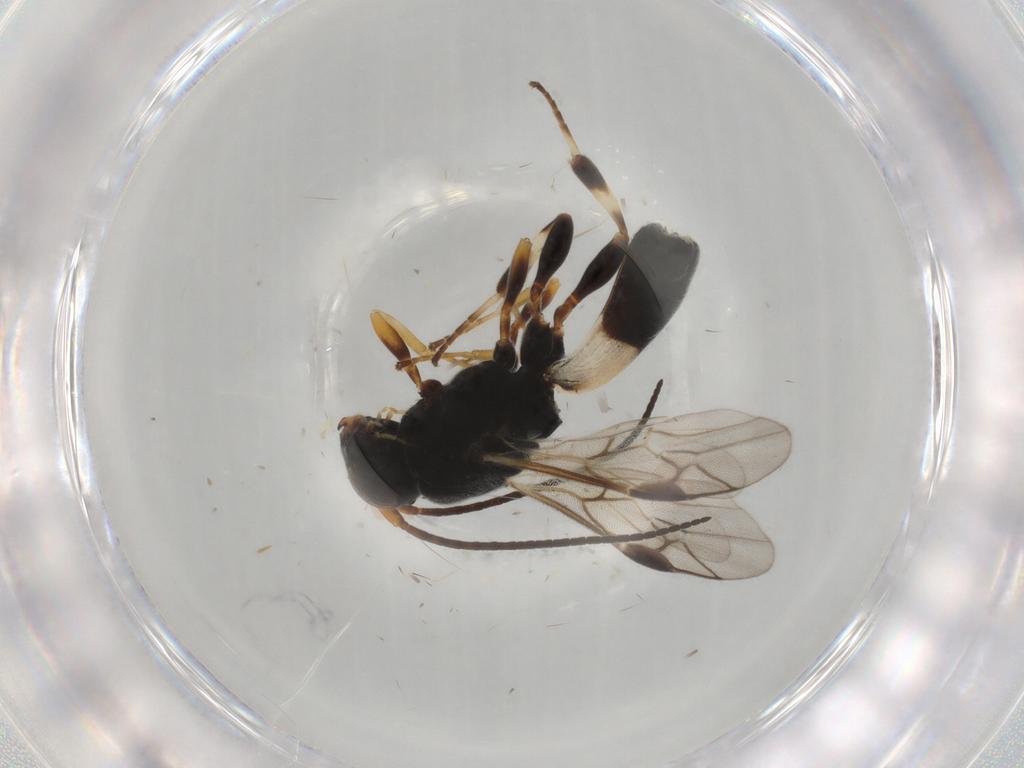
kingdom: Animalia
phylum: Arthropoda
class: Insecta
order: Hymenoptera
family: Braconidae
